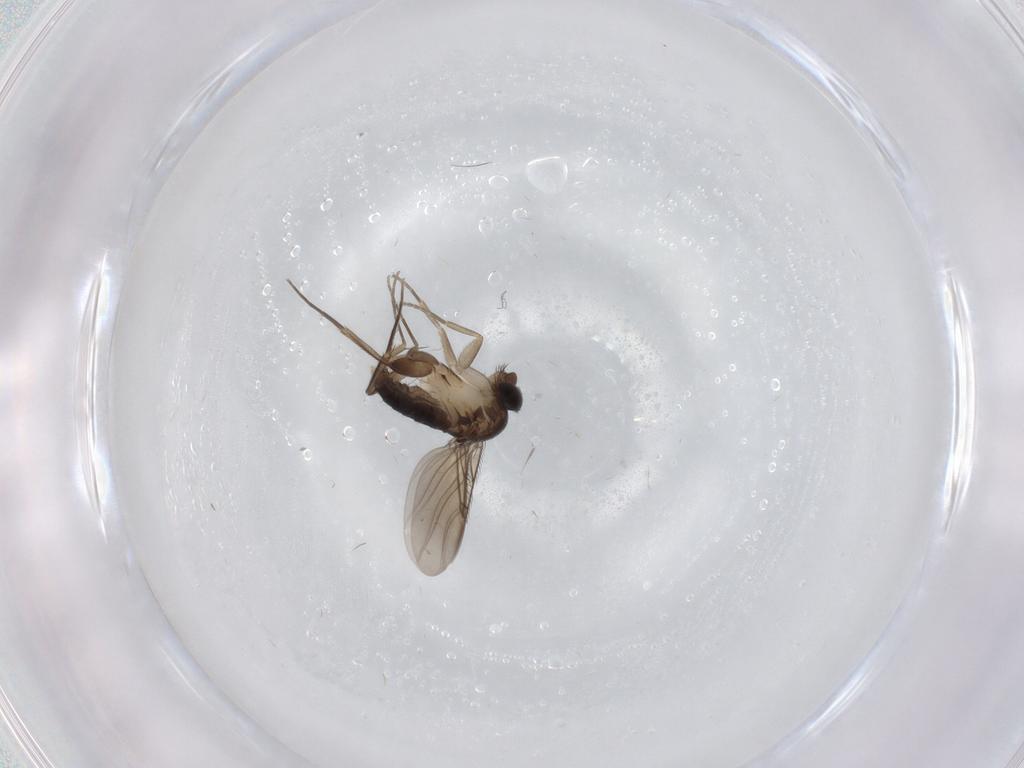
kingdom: Animalia
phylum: Arthropoda
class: Insecta
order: Diptera
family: Phoridae
